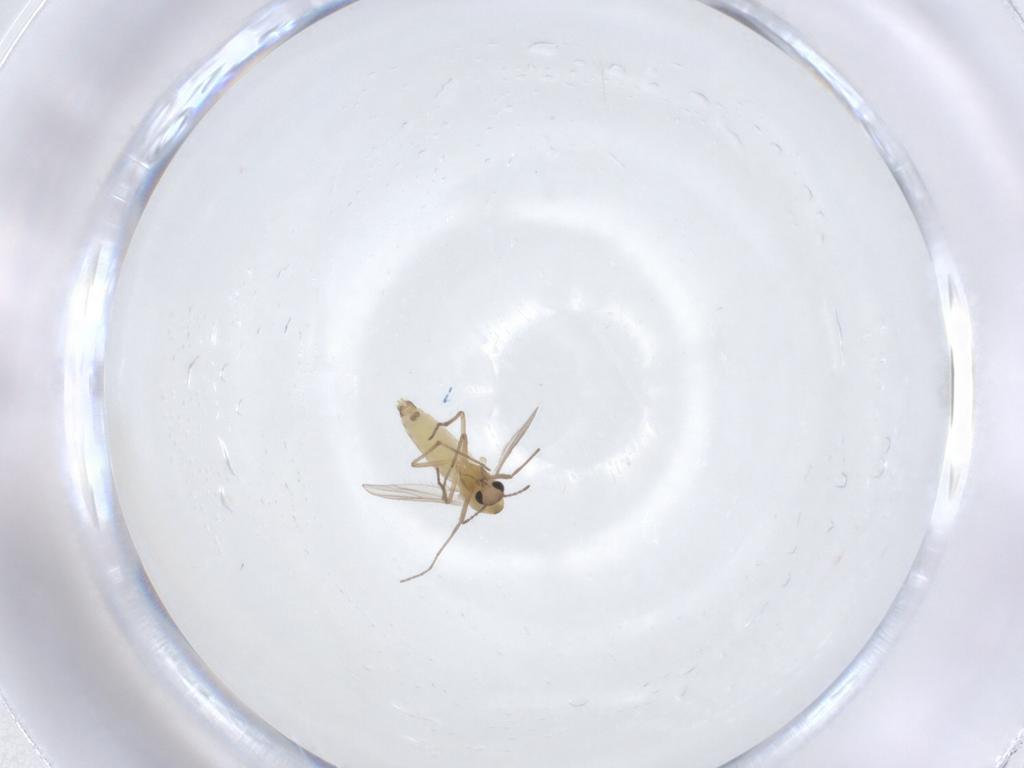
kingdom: Animalia
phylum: Arthropoda
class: Insecta
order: Diptera
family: Chironomidae
